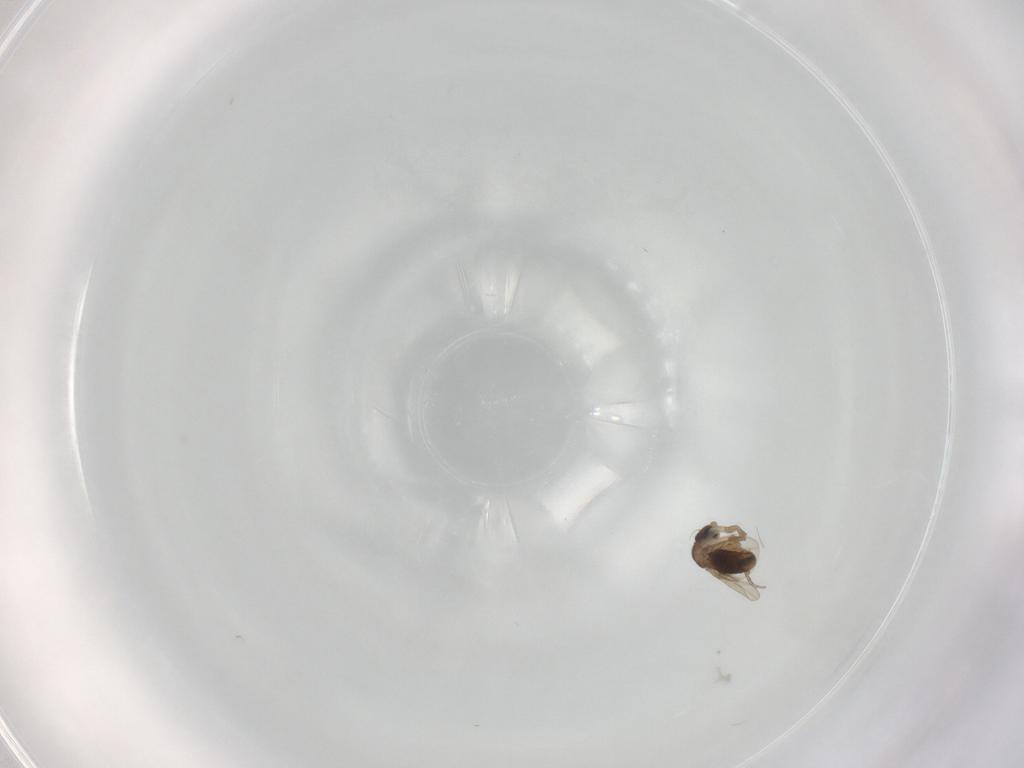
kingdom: Animalia
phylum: Arthropoda
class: Insecta
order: Diptera
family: Phoridae
